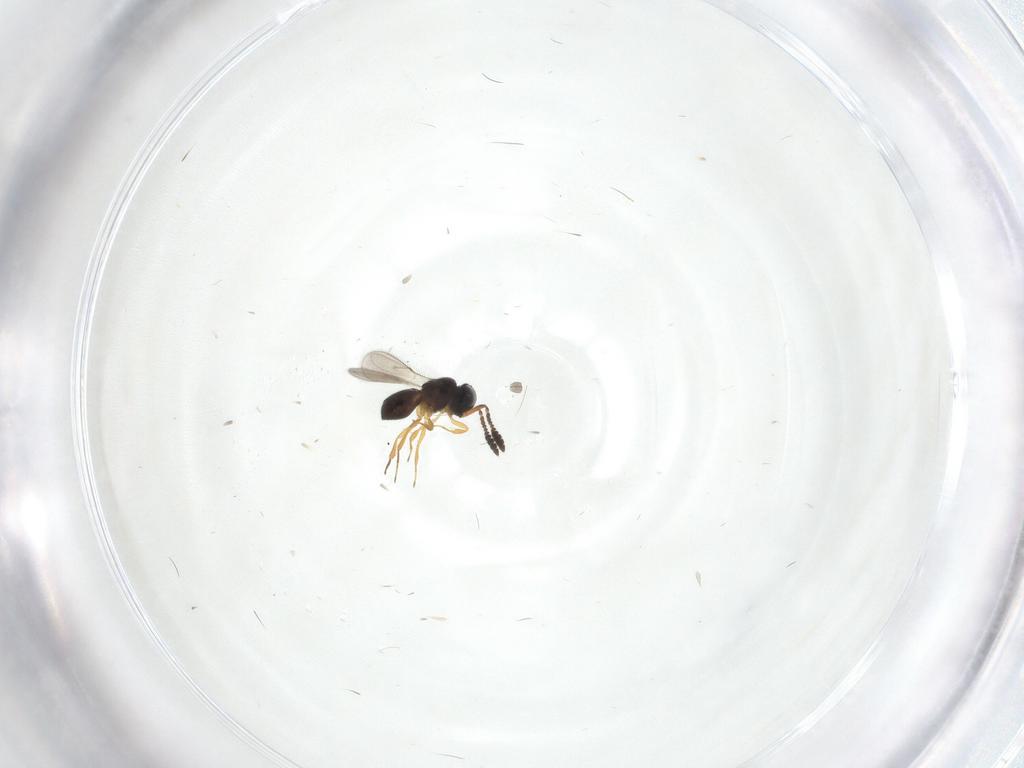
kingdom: Animalia
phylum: Arthropoda
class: Insecta
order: Hymenoptera
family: Scelionidae
